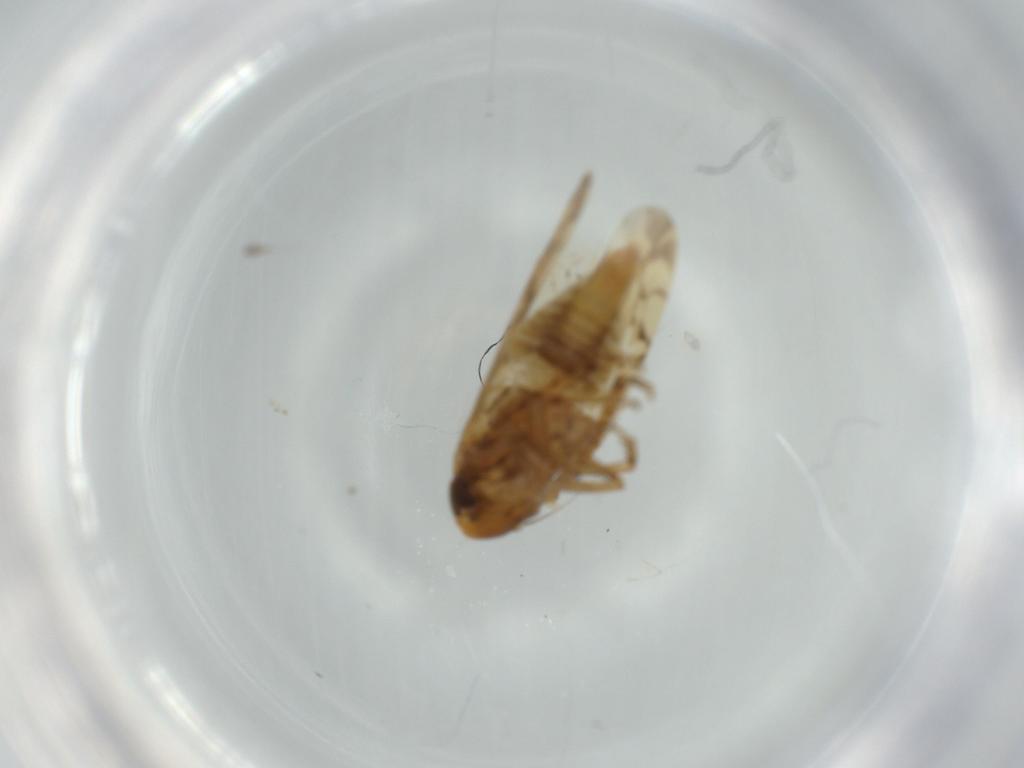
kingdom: Animalia
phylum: Arthropoda
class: Insecta
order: Hemiptera
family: Cicadellidae
